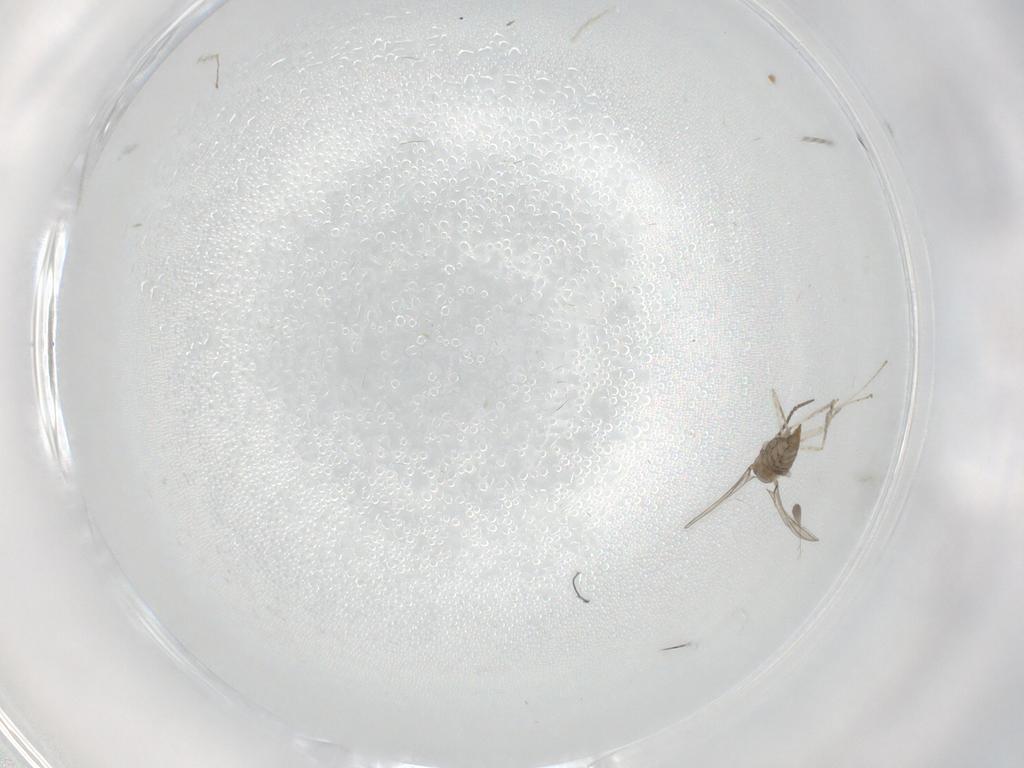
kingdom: Animalia
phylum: Arthropoda
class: Insecta
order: Diptera
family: Cecidomyiidae
